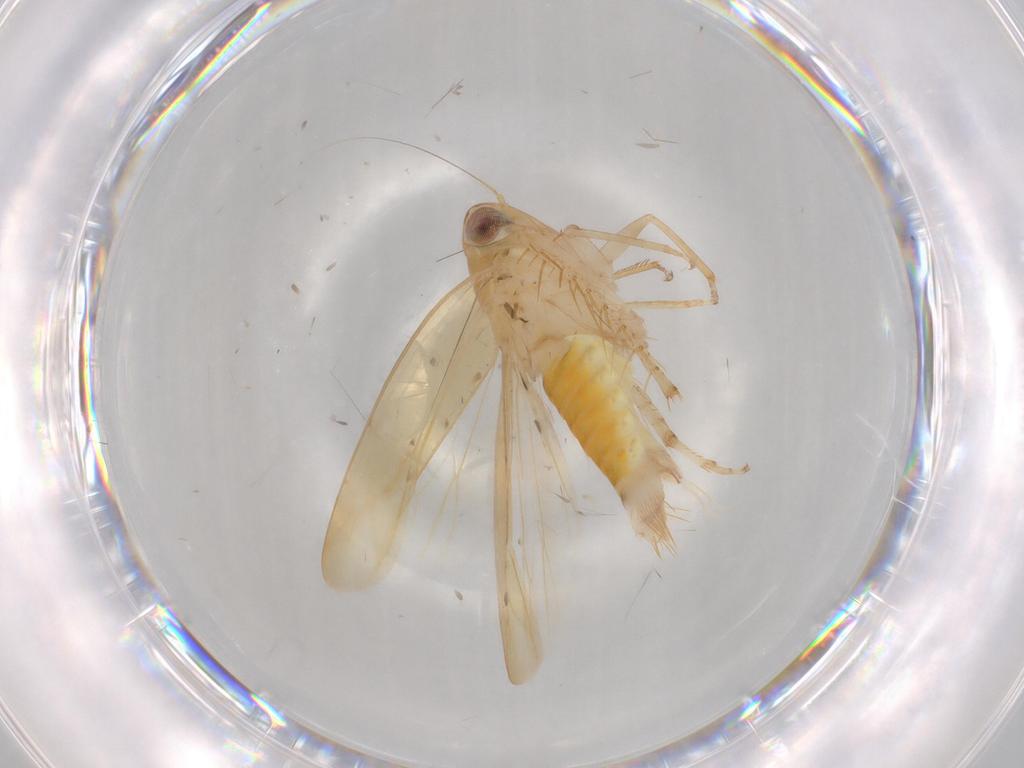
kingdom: Animalia
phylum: Arthropoda
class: Insecta
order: Hemiptera
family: Cicadellidae
